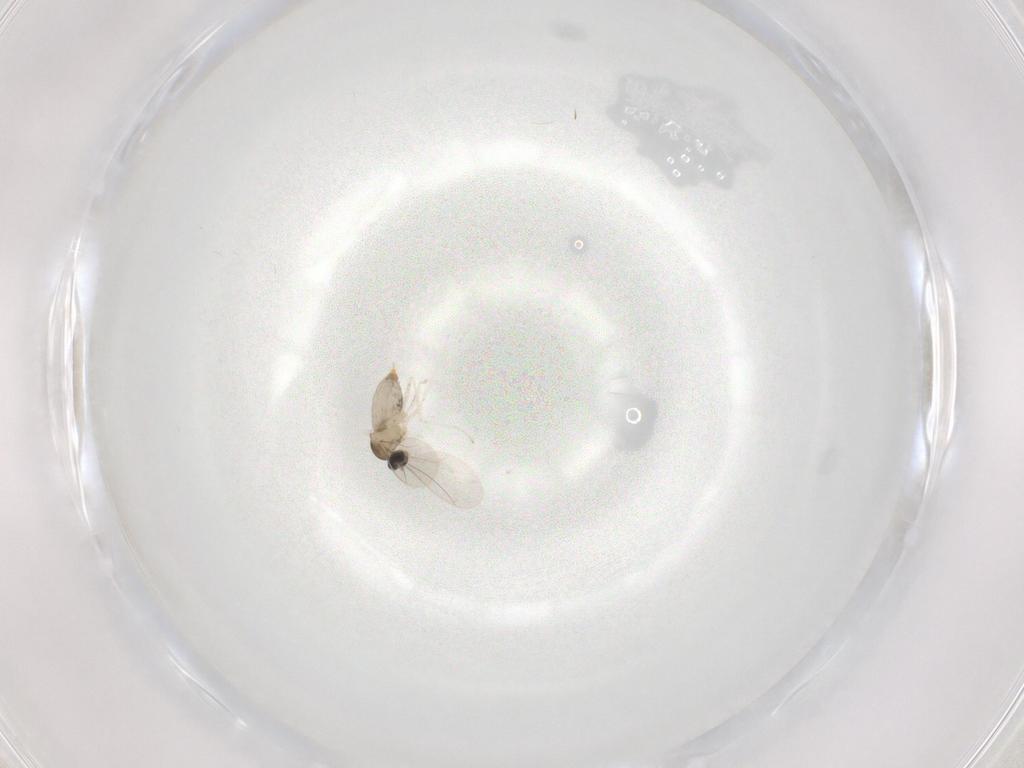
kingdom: Animalia
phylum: Arthropoda
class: Insecta
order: Diptera
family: Cecidomyiidae
